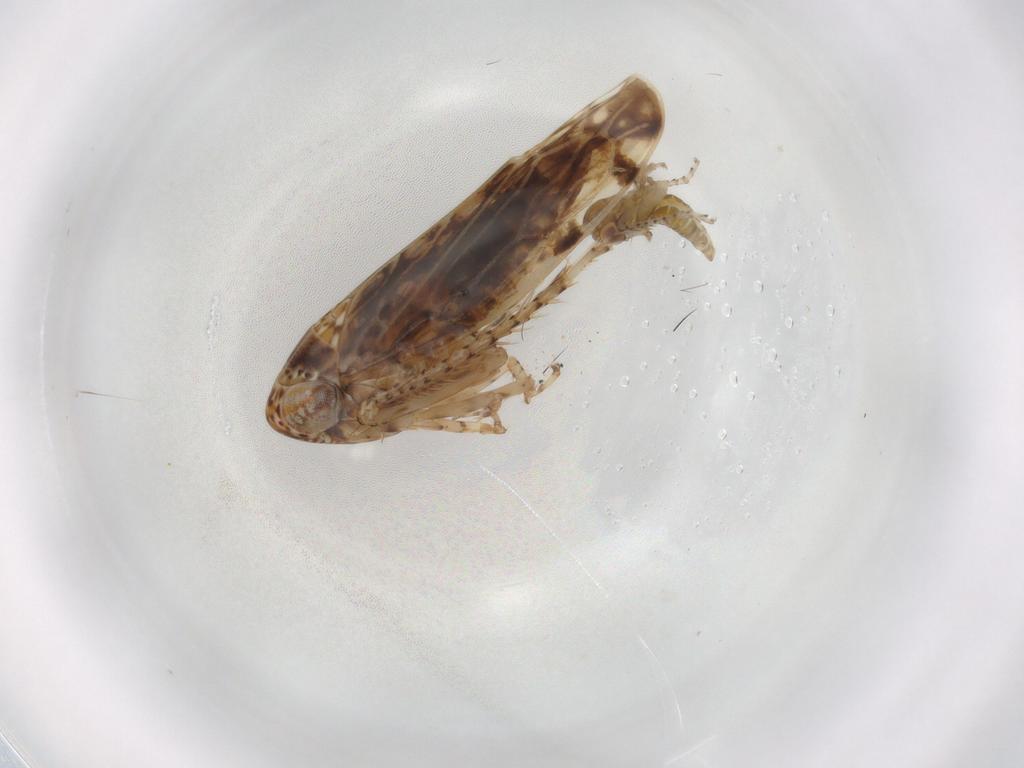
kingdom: Animalia
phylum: Arthropoda
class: Insecta
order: Hemiptera
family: Cicadellidae
